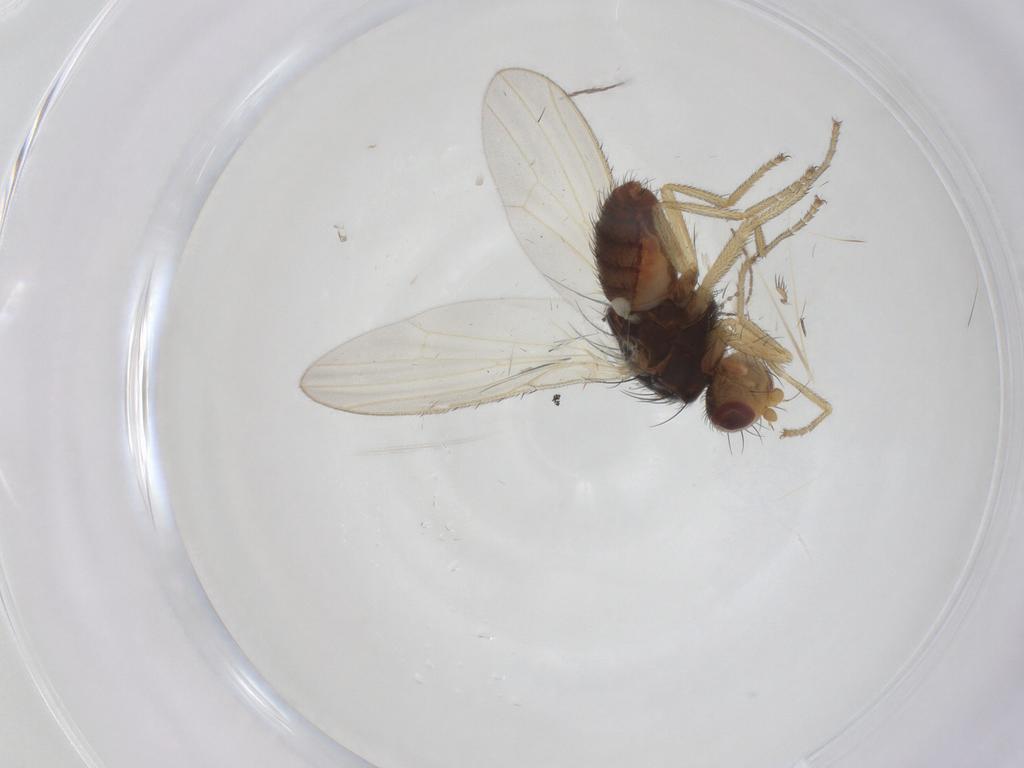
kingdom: Animalia
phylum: Arthropoda
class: Insecta
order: Diptera
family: Heleomyzidae
